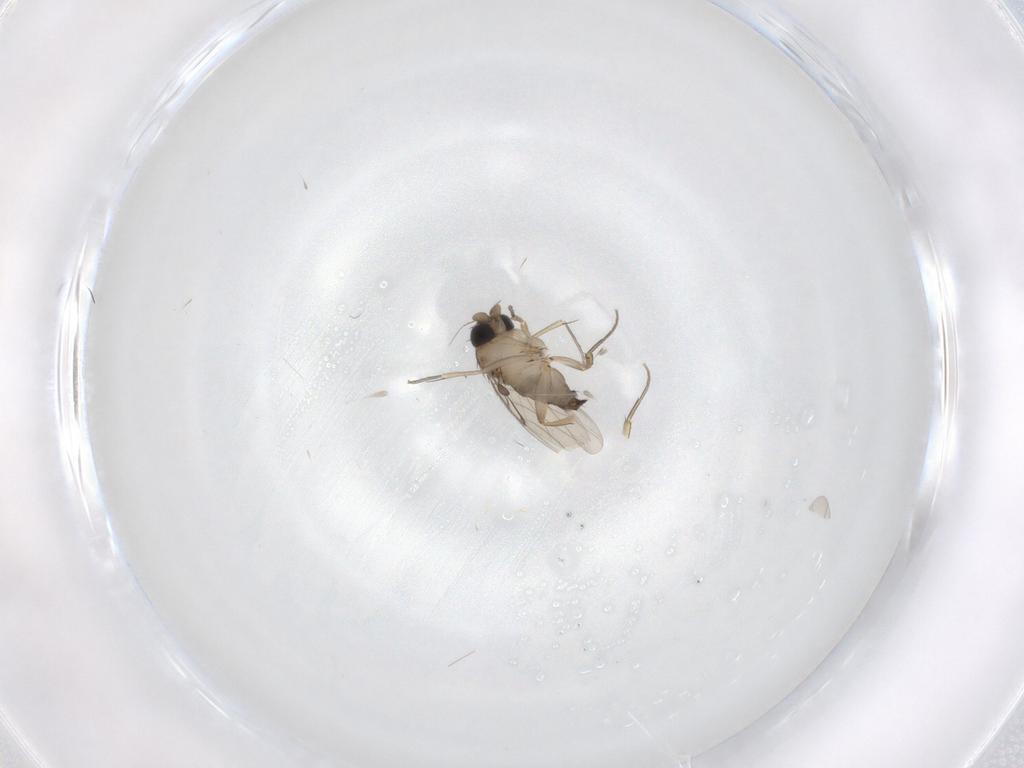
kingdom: Animalia
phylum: Arthropoda
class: Insecta
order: Diptera
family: Phoridae
